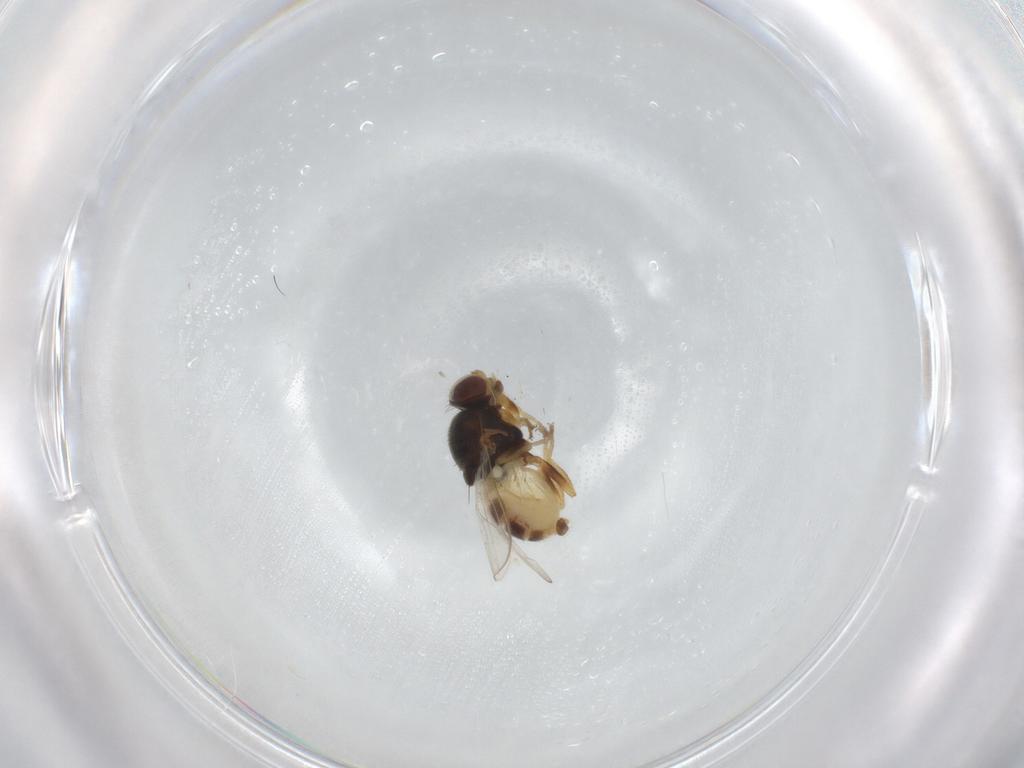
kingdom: Animalia
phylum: Arthropoda
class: Insecta
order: Diptera
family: Chloropidae
